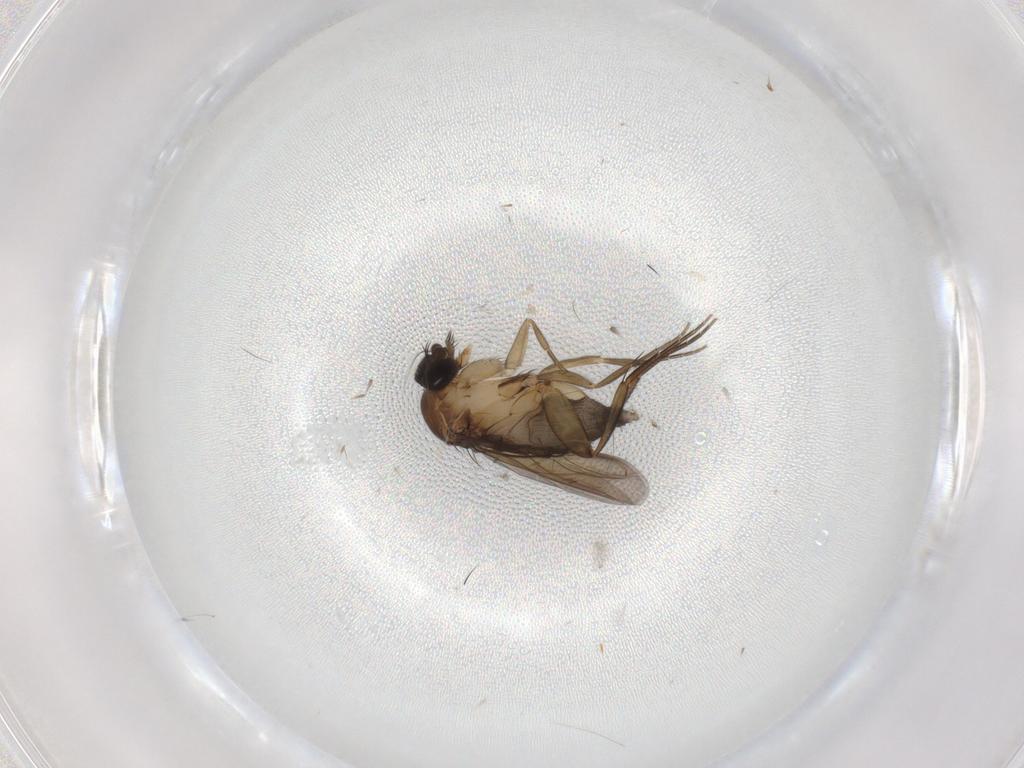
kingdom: Animalia
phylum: Arthropoda
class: Insecta
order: Diptera
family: Phoridae
